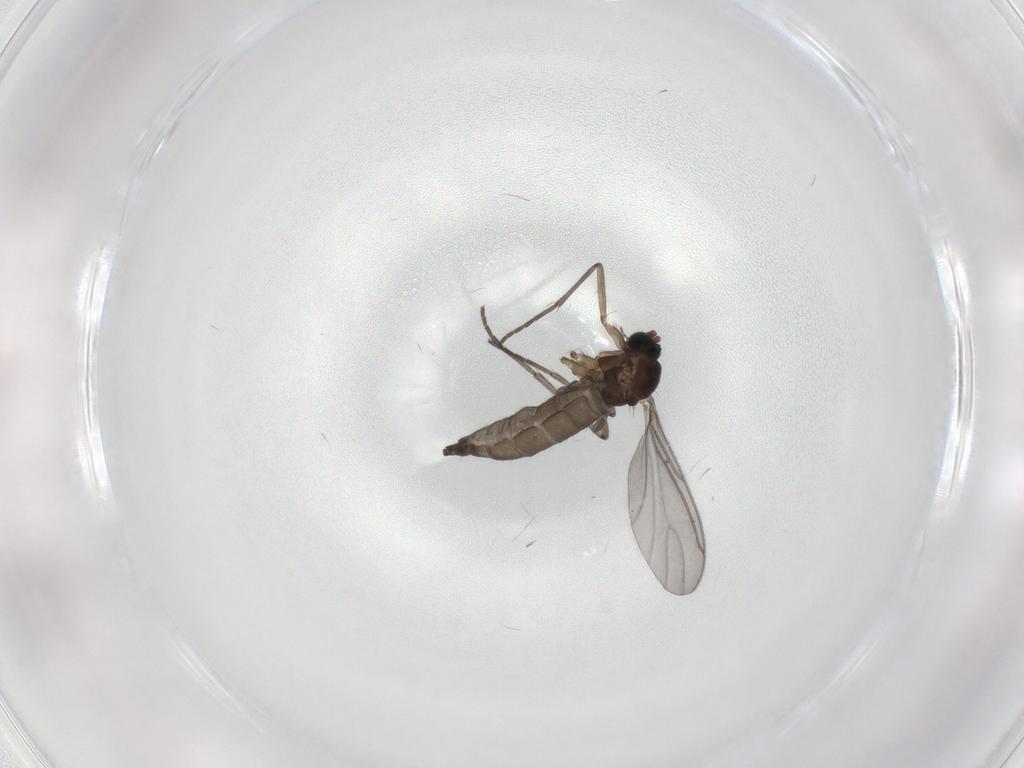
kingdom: Animalia
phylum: Arthropoda
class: Insecta
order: Diptera
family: Sciaridae
